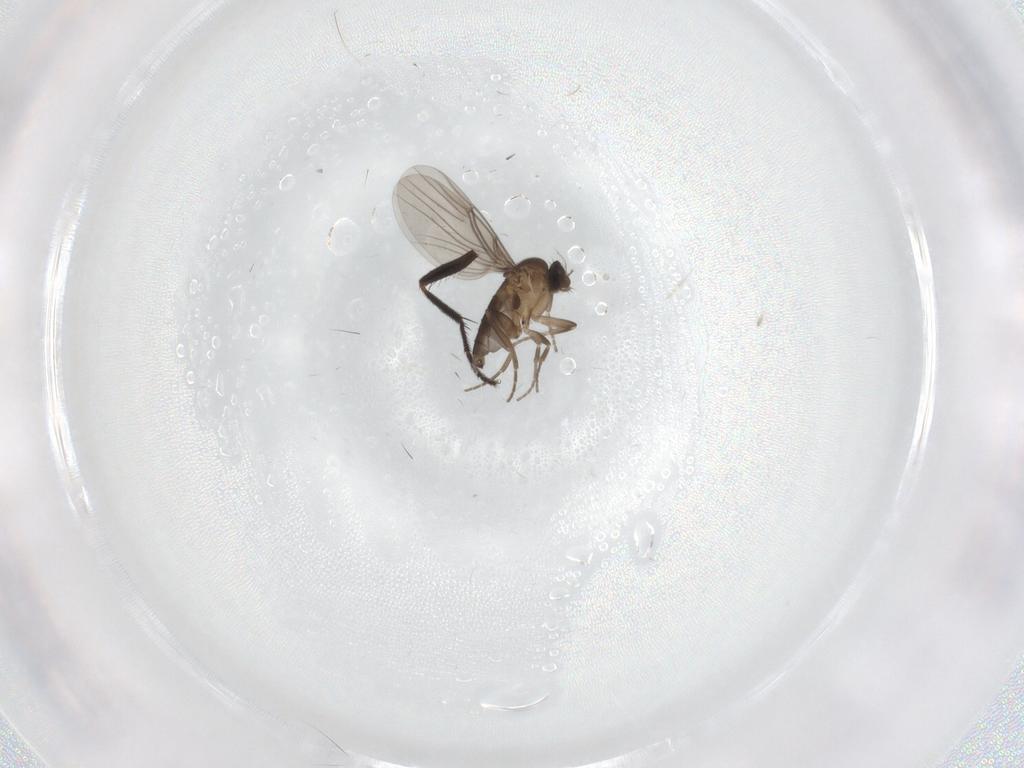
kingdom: Animalia
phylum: Arthropoda
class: Insecta
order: Diptera
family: Milichiidae
